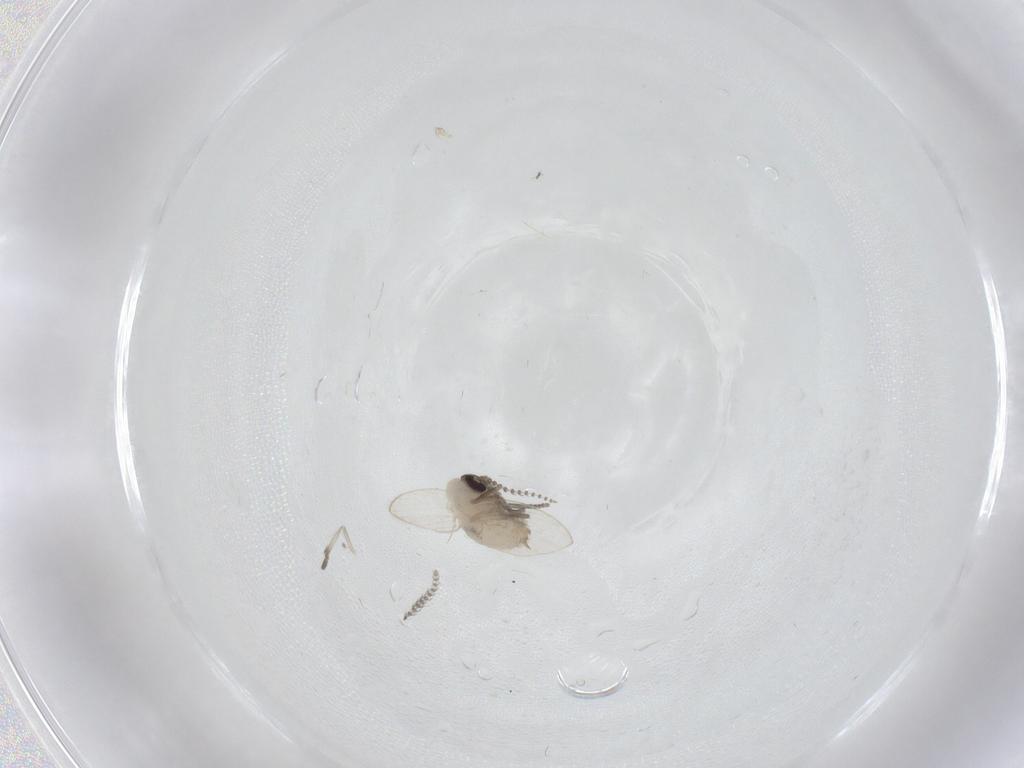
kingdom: Animalia
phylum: Arthropoda
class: Insecta
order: Diptera
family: Psychodidae
